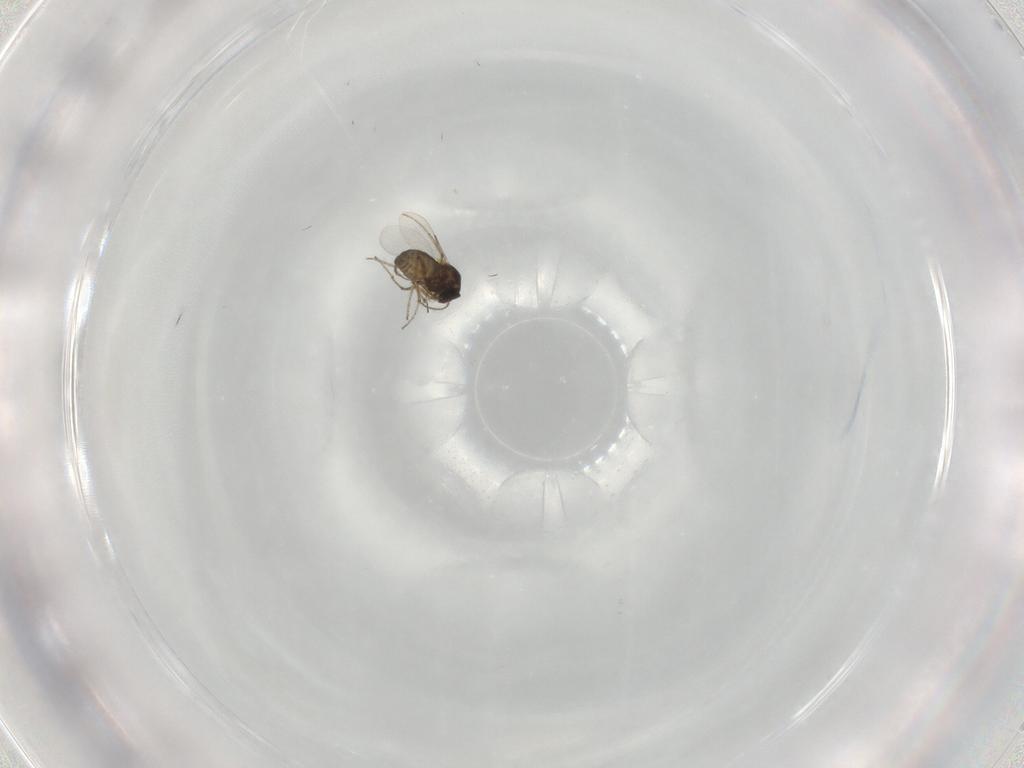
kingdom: Animalia
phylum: Arthropoda
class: Insecta
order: Diptera
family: Ceratopogonidae
